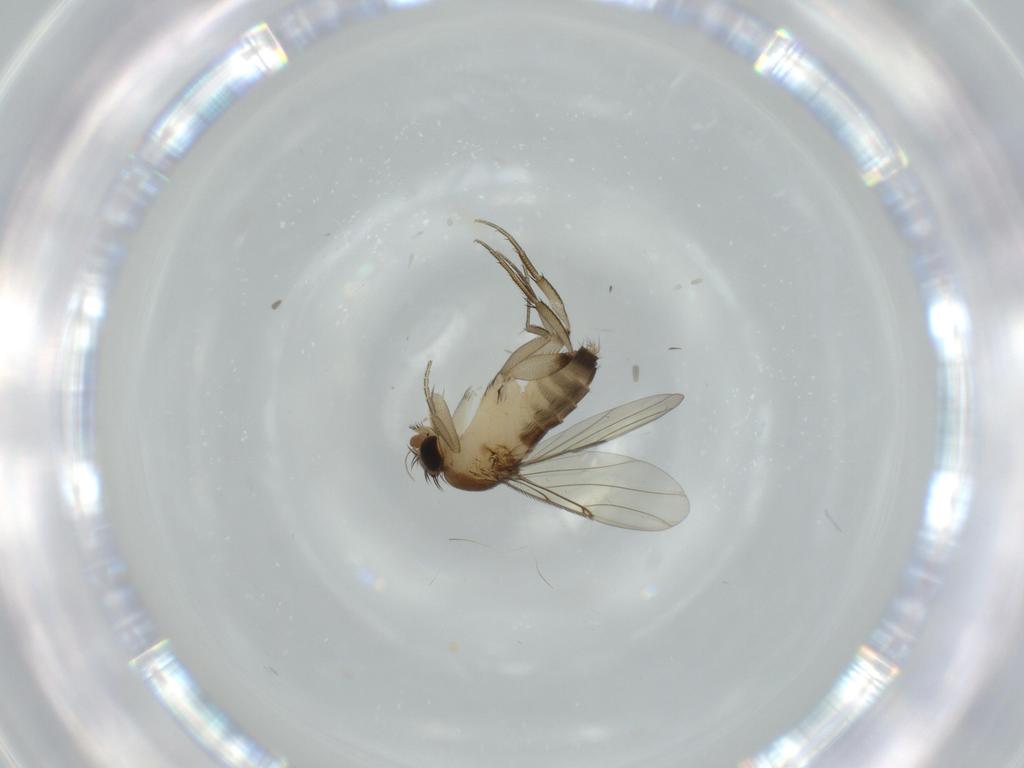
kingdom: Animalia
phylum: Arthropoda
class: Insecta
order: Diptera
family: Phoridae
